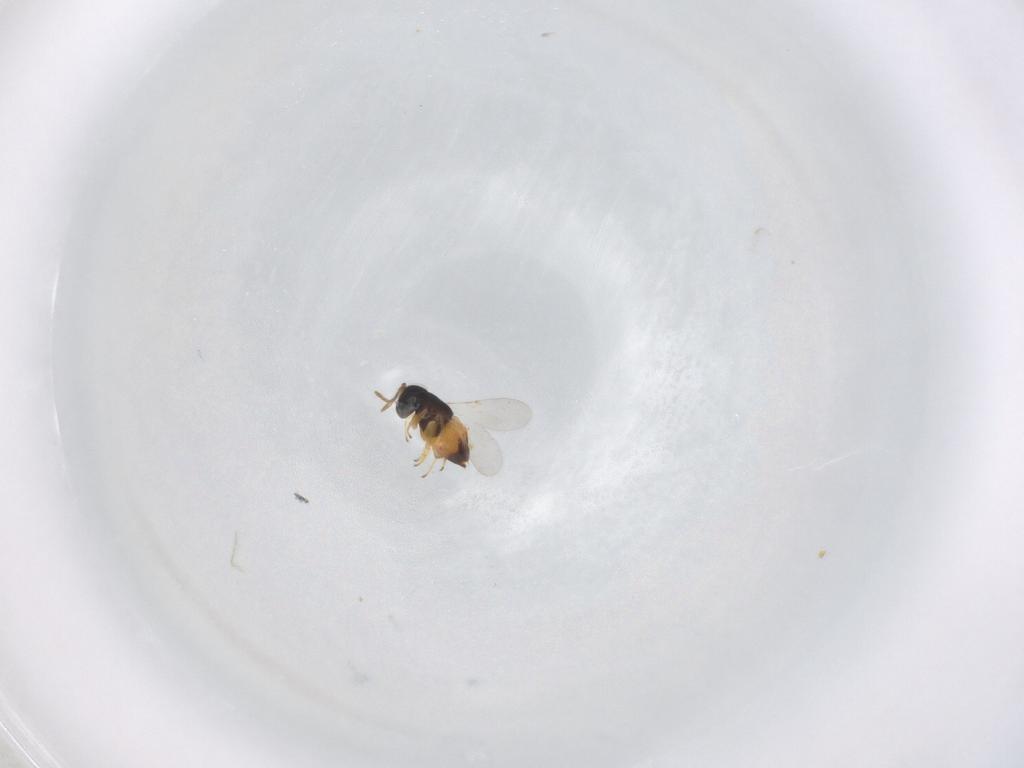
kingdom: Animalia
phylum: Arthropoda
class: Insecta
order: Hymenoptera
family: Encyrtidae
